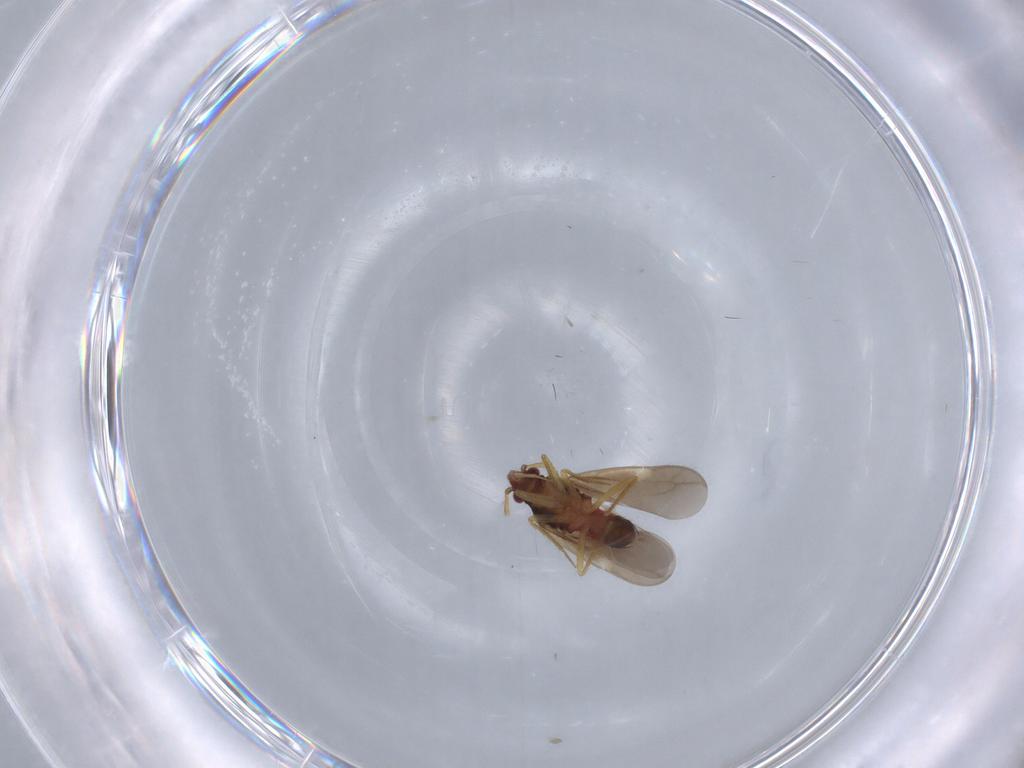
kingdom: Animalia
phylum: Arthropoda
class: Insecta
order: Hemiptera
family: Ceratocombidae
